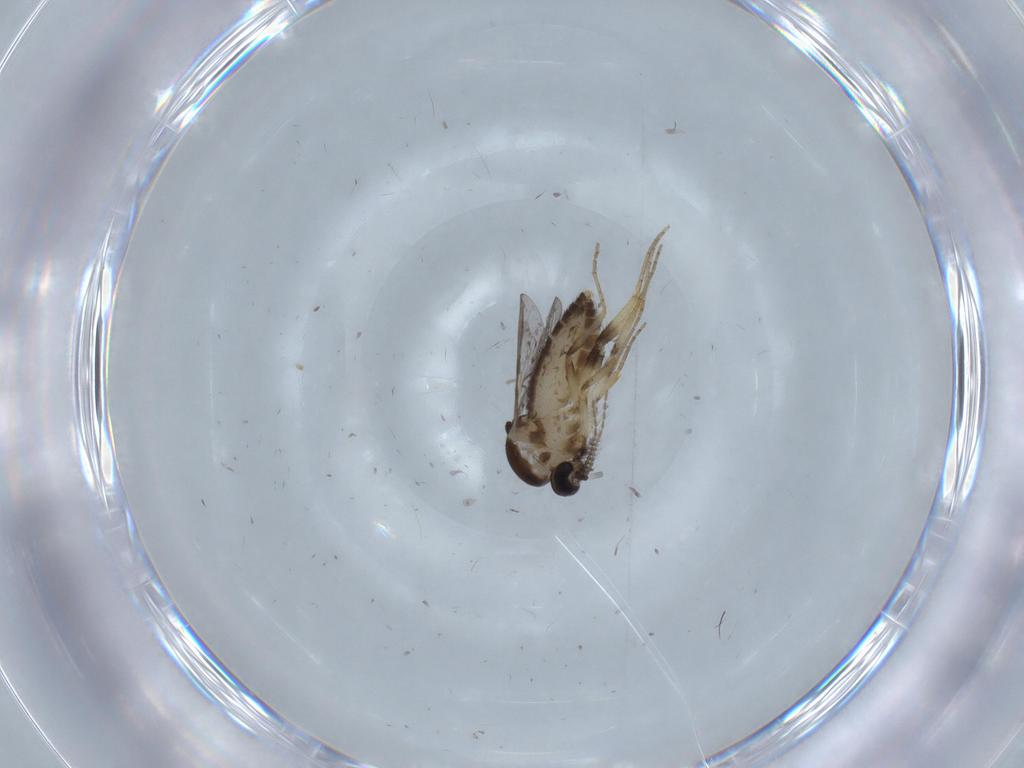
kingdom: Animalia
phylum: Arthropoda
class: Insecta
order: Diptera
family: Ceratopogonidae
